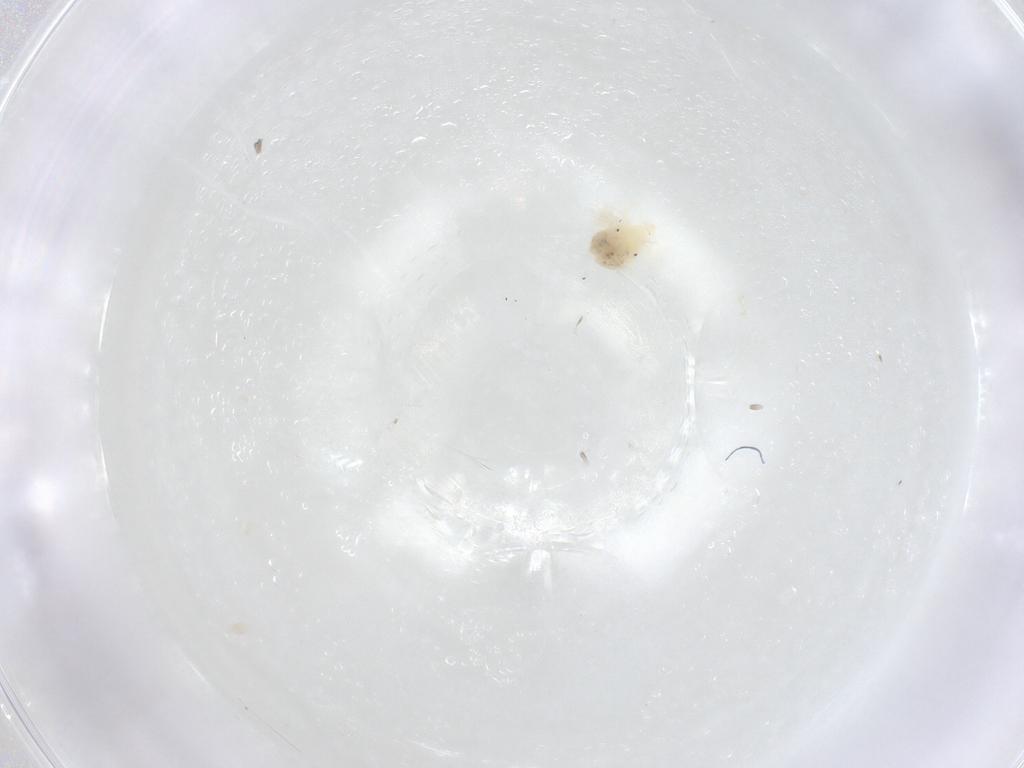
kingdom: Animalia
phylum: Arthropoda
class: Arachnida
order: Trombidiformes
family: Anystidae
